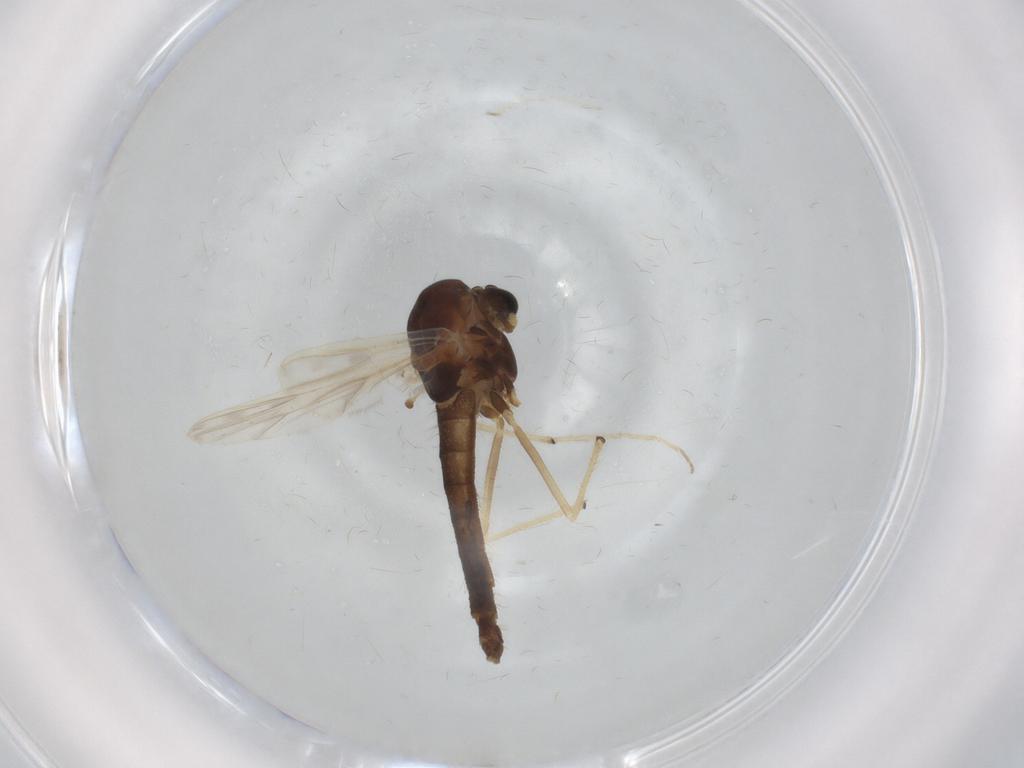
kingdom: Animalia
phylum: Arthropoda
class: Insecta
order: Diptera
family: Chironomidae
